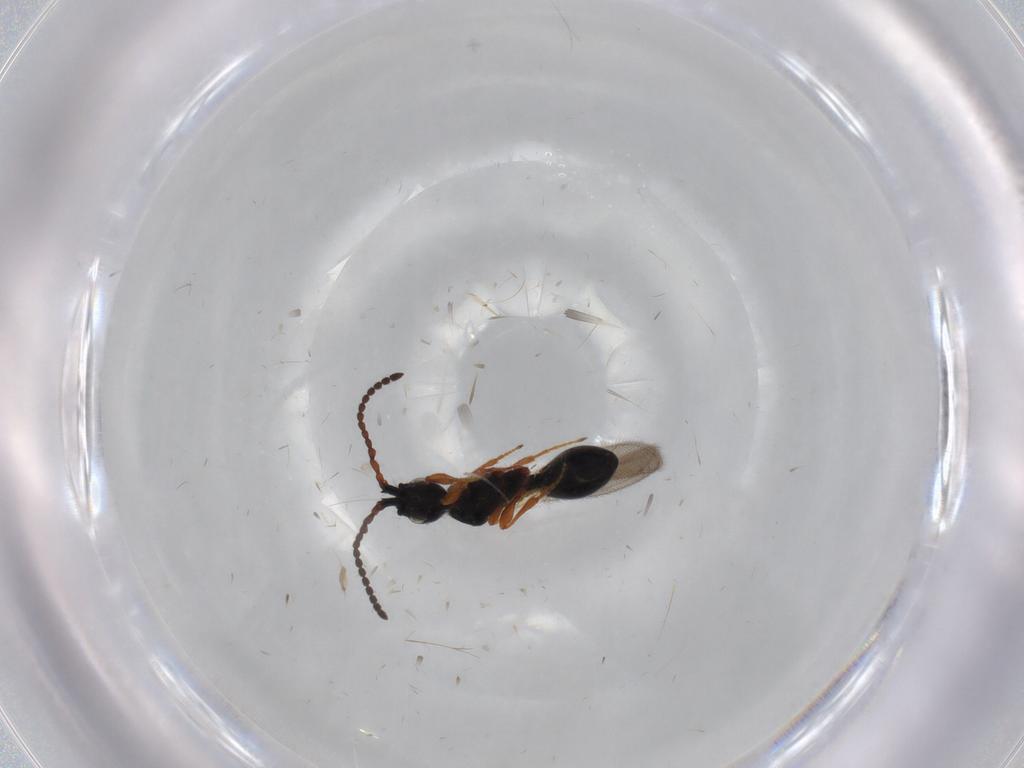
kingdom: Animalia
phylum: Arthropoda
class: Insecta
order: Hymenoptera
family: Diapriidae
